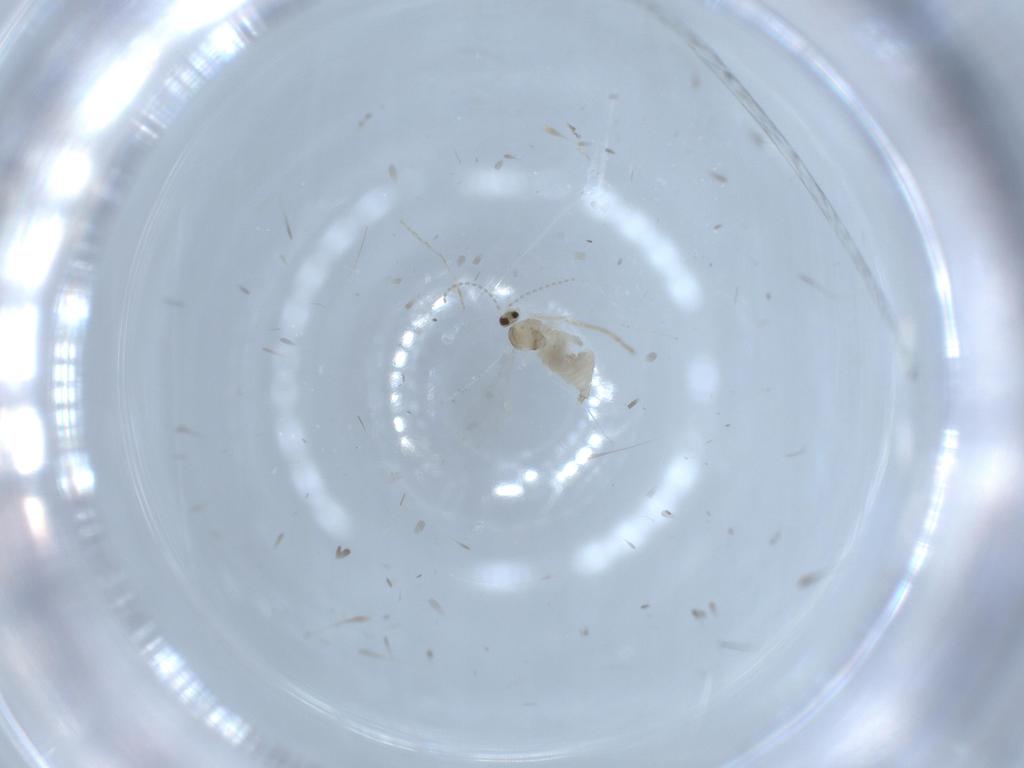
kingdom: Animalia
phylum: Arthropoda
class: Insecta
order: Diptera
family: Cecidomyiidae
